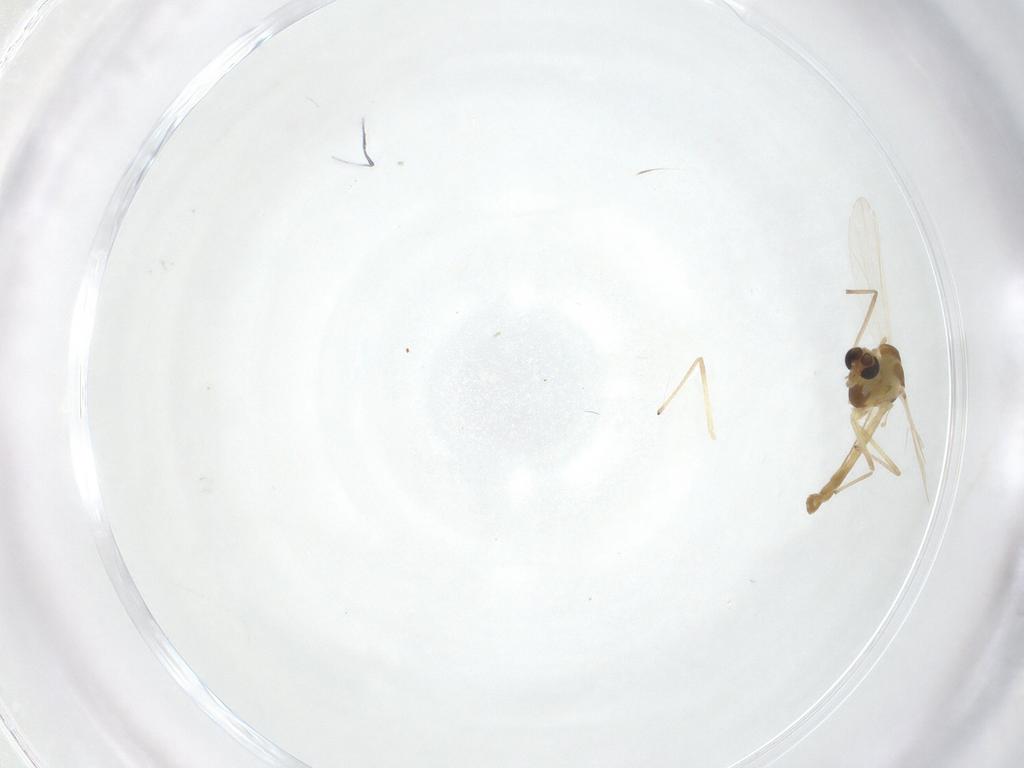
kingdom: Animalia
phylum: Arthropoda
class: Insecta
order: Diptera
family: Chironomidae
